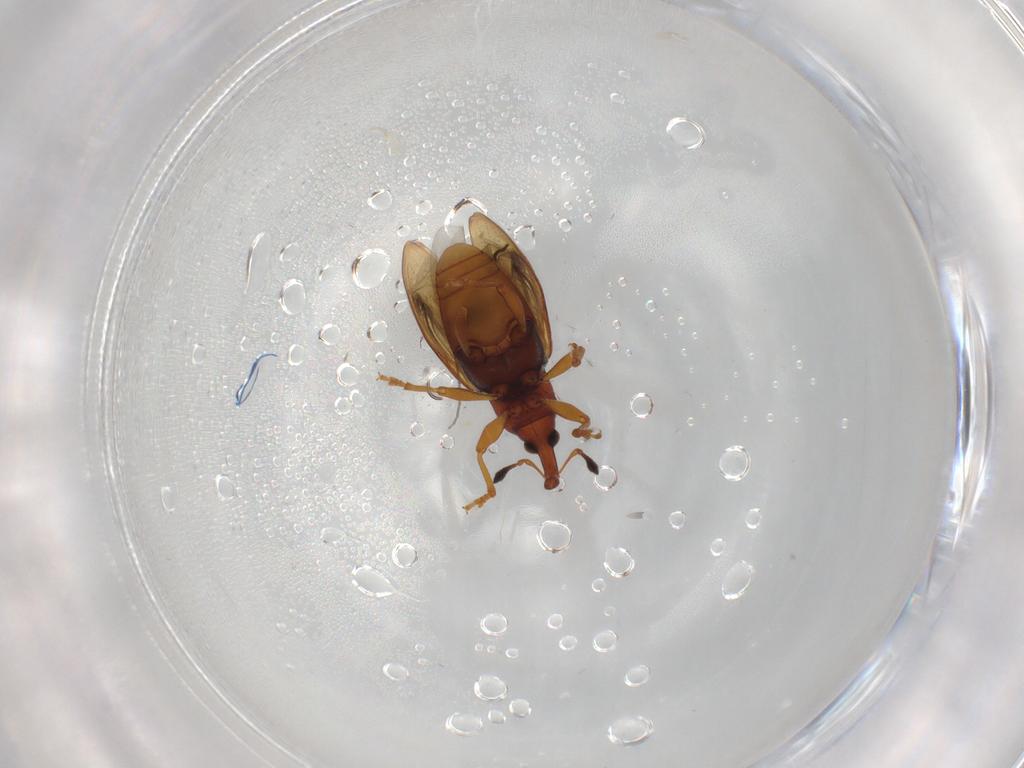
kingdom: Animalia
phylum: Arthropoda
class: Insecta
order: Coleoptera
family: Curculionidae
